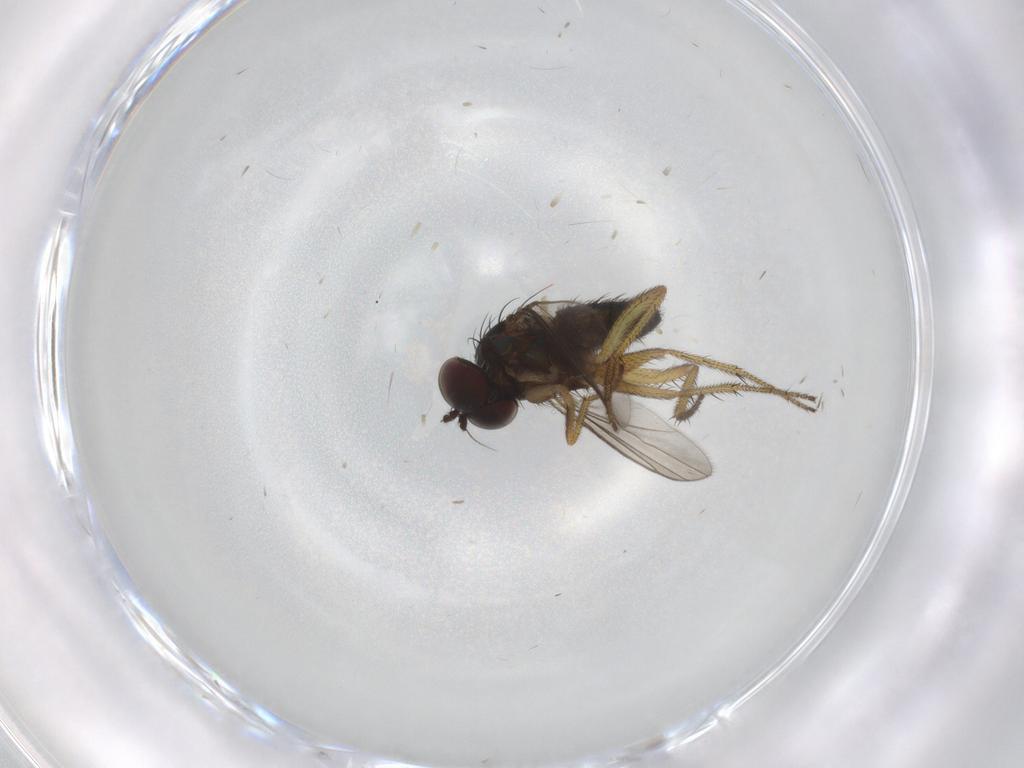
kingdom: Animalia
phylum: Arthropoda
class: Insecta
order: Diptera
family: Dolichopodidae
